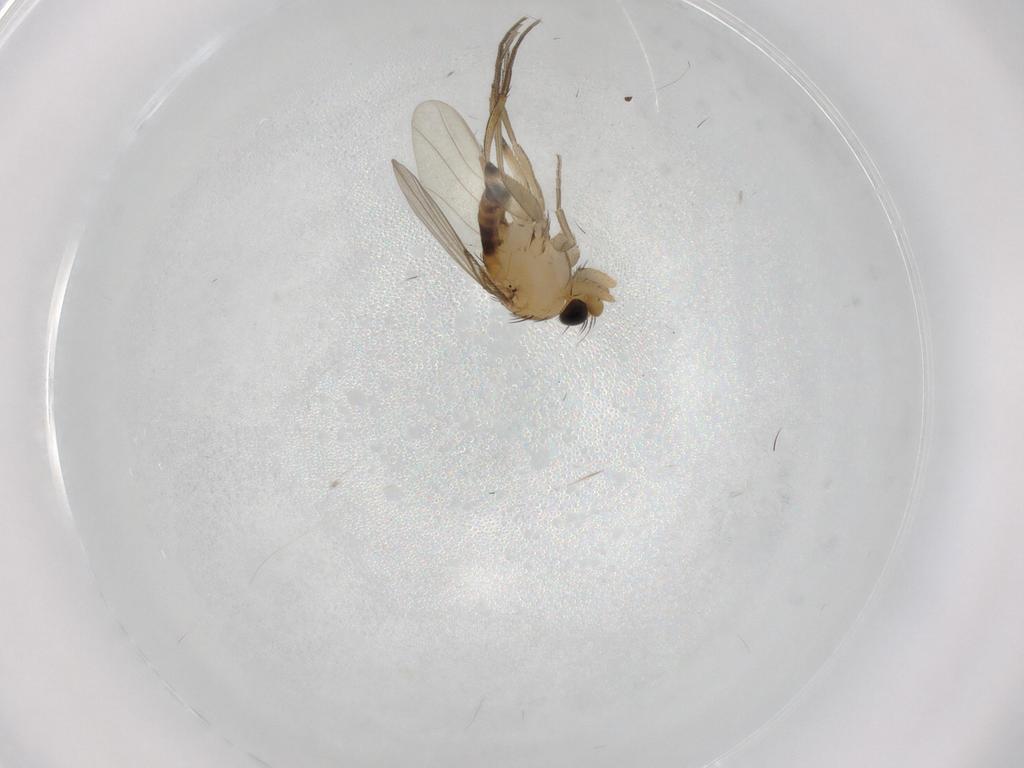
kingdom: Animalia
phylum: Arthropoda
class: Insecta
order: Diptera
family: Phoridae
